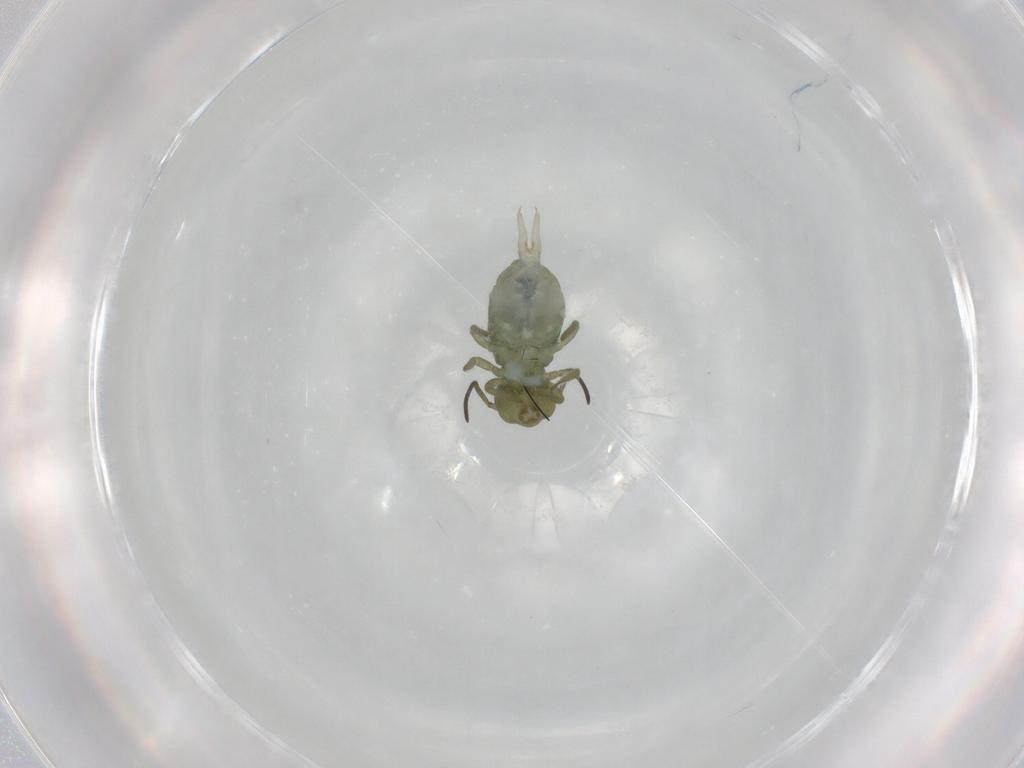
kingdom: Animalia
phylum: Arthropoda
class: Collembola
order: Symphypleona
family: Sminthuridae
